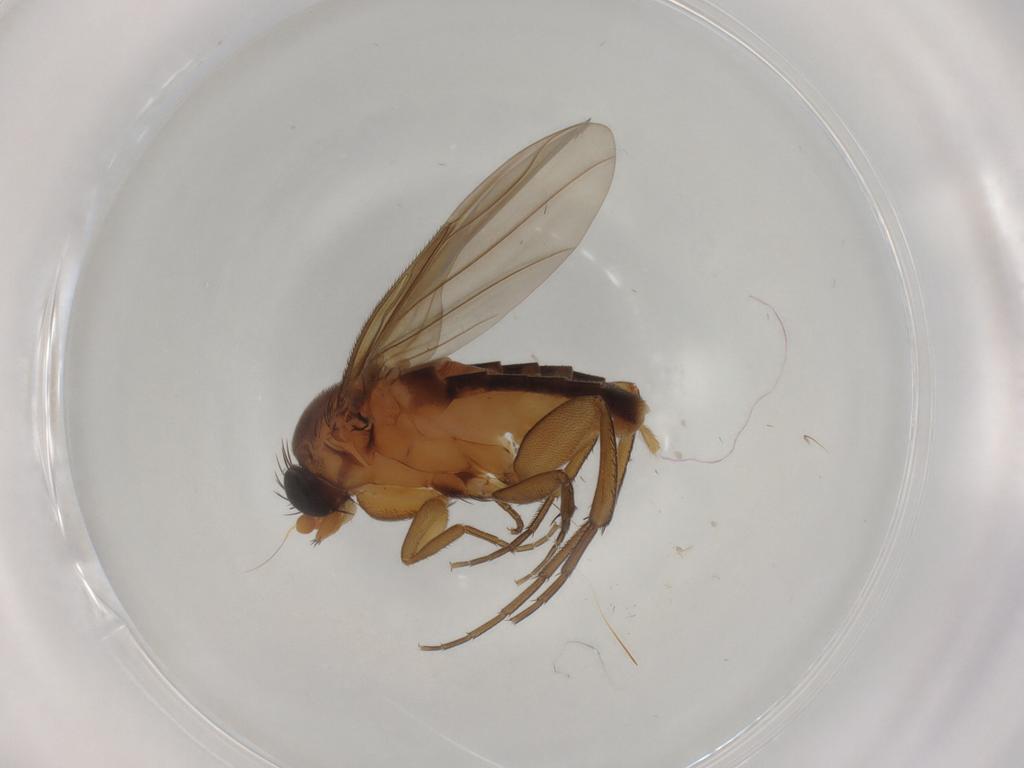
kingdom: Animalia
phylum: Arthropoda
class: Insecta
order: Diptera
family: Phoridae
